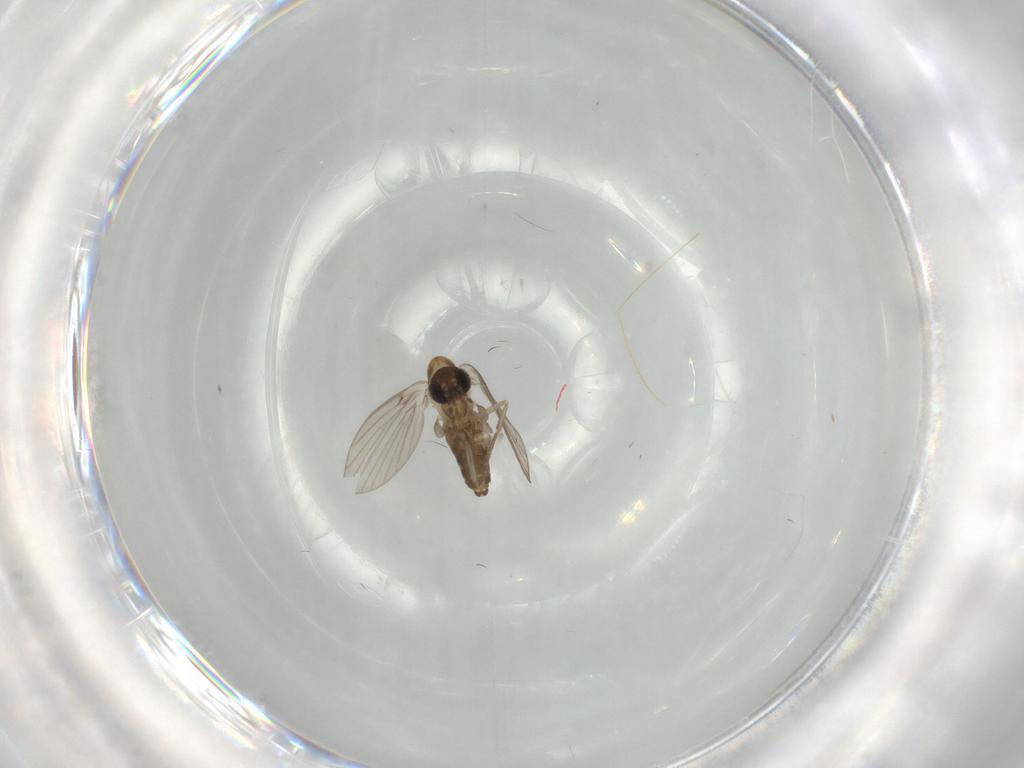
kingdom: Animalia
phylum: Arthropoda
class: Insecta
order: Diptera
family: Psychodidae
